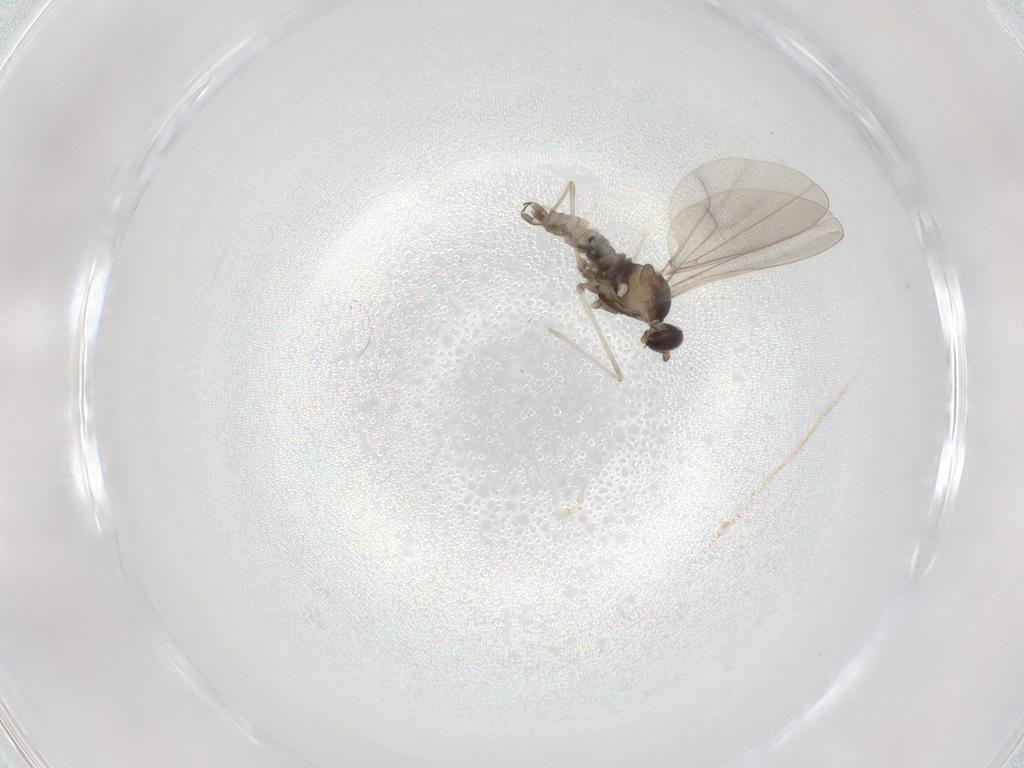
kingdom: Animalia
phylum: Arthropoda
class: Insecta
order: Diptera
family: Cecidomyiidae
